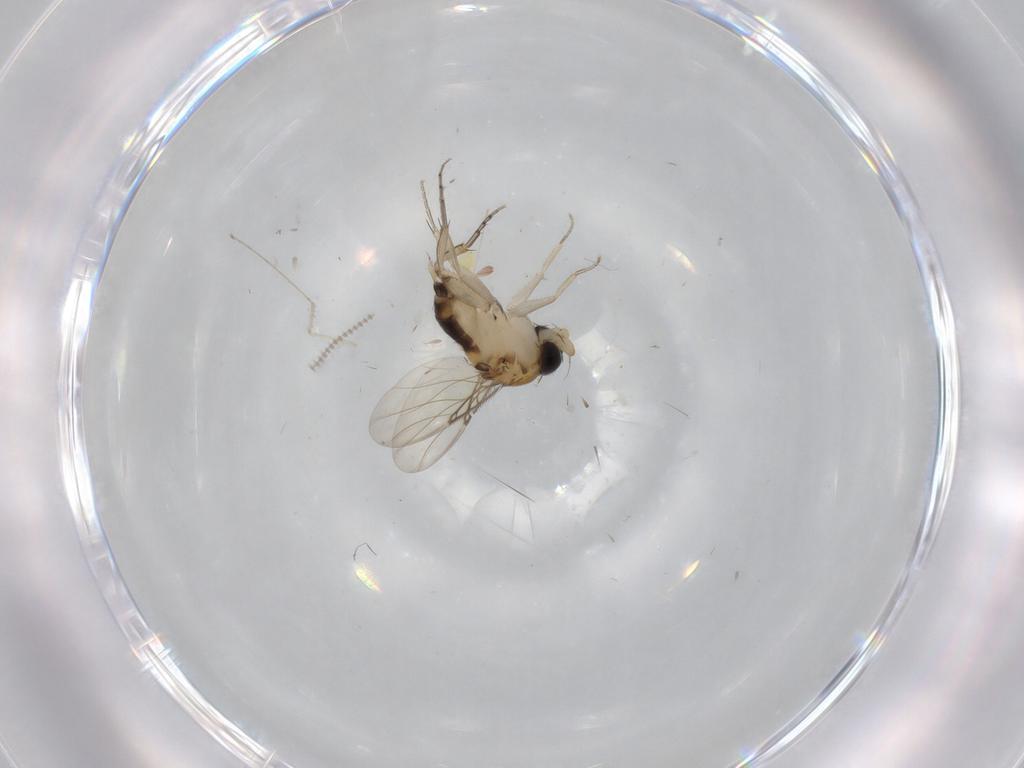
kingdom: Animalia
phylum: Arthropoda
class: Insecta
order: Diptera
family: Phoridae
